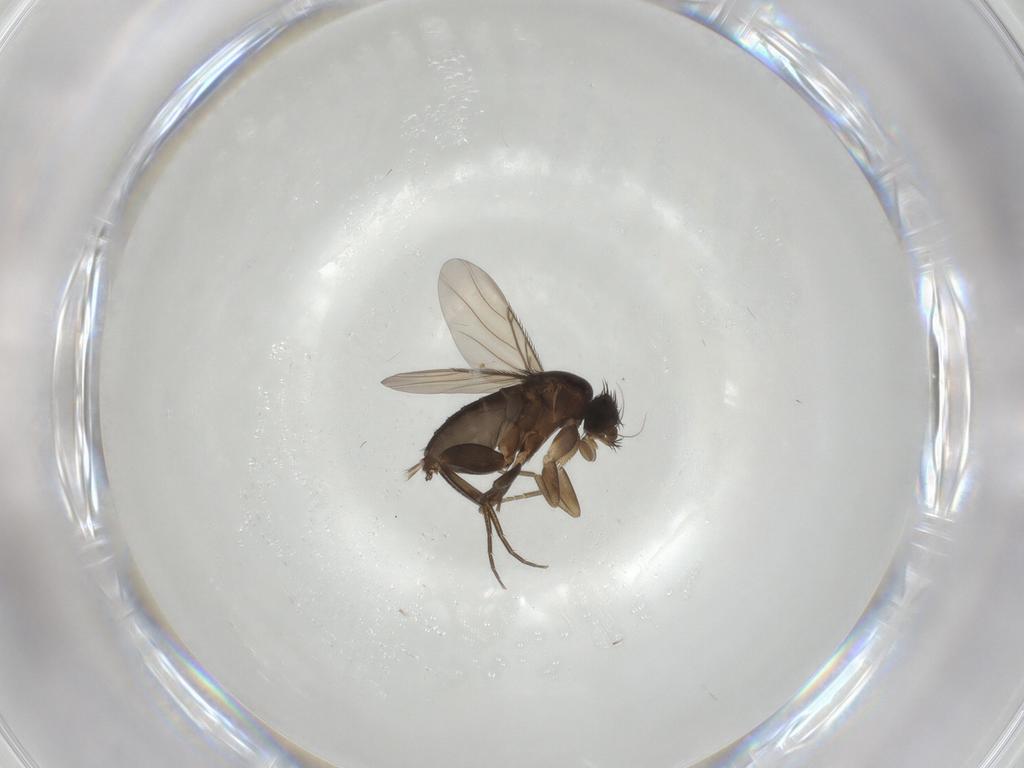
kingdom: Animalia
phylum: Arthropoda
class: Insecta
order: Diptera
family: Phoridae
